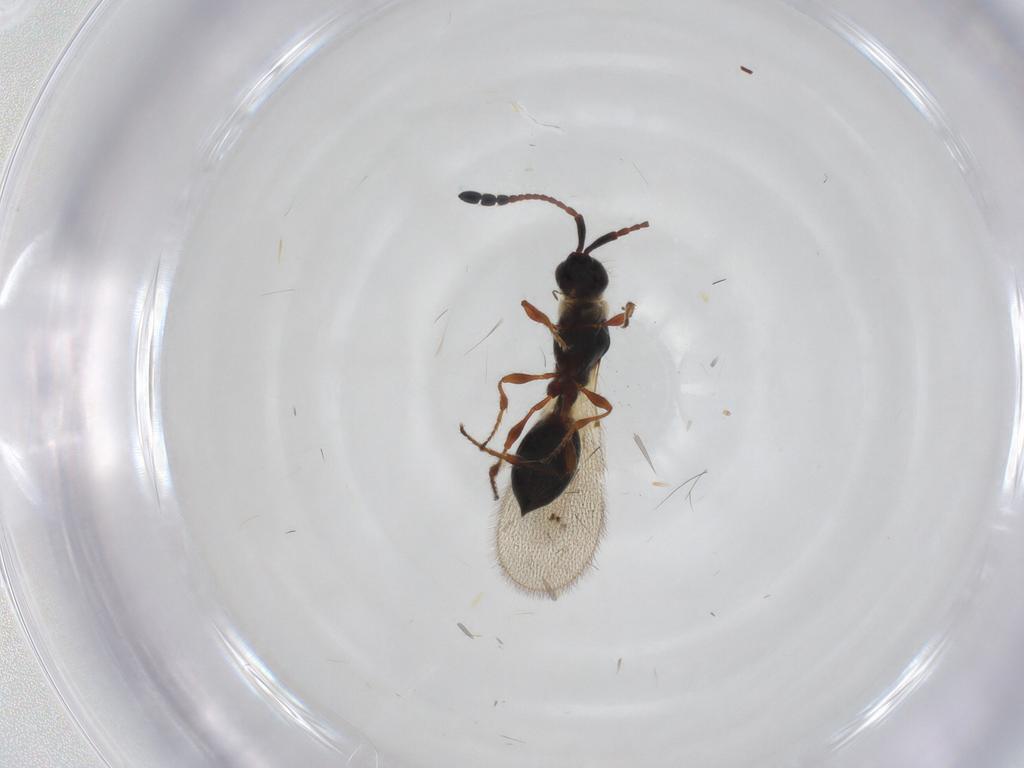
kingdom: Animalia
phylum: Arthropoda
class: Insecta
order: Hymenoptera
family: Diapriidae
